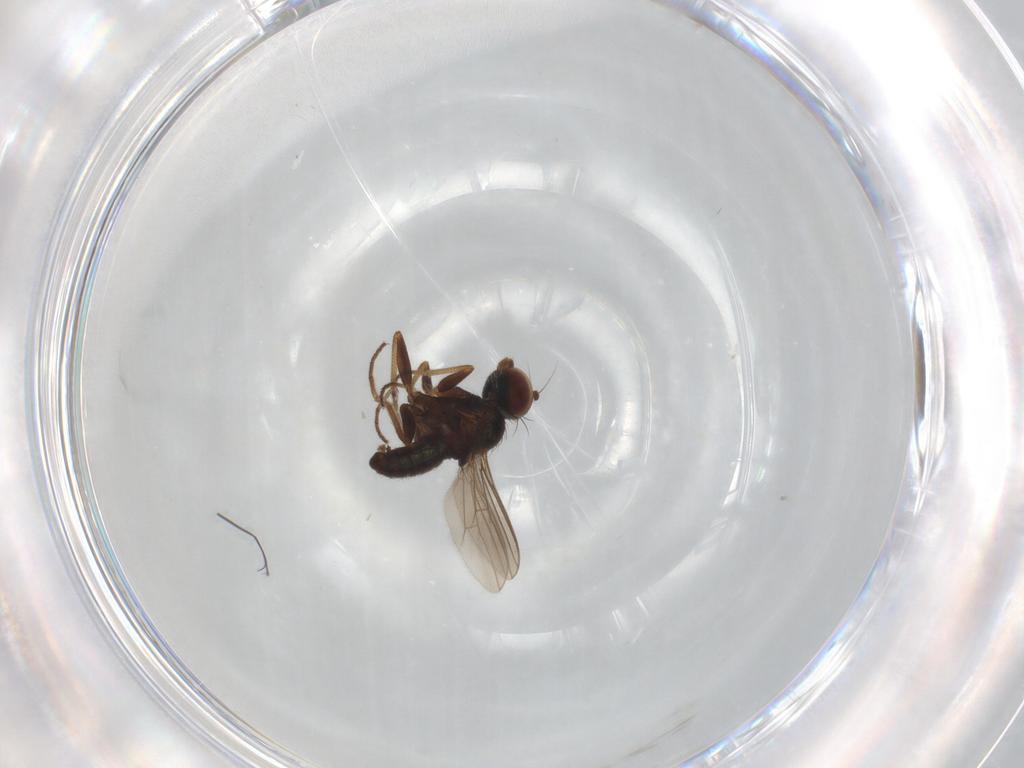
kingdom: Animalia
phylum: Arthropoda
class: Insecta
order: Diptera
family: Dolichopodidae
